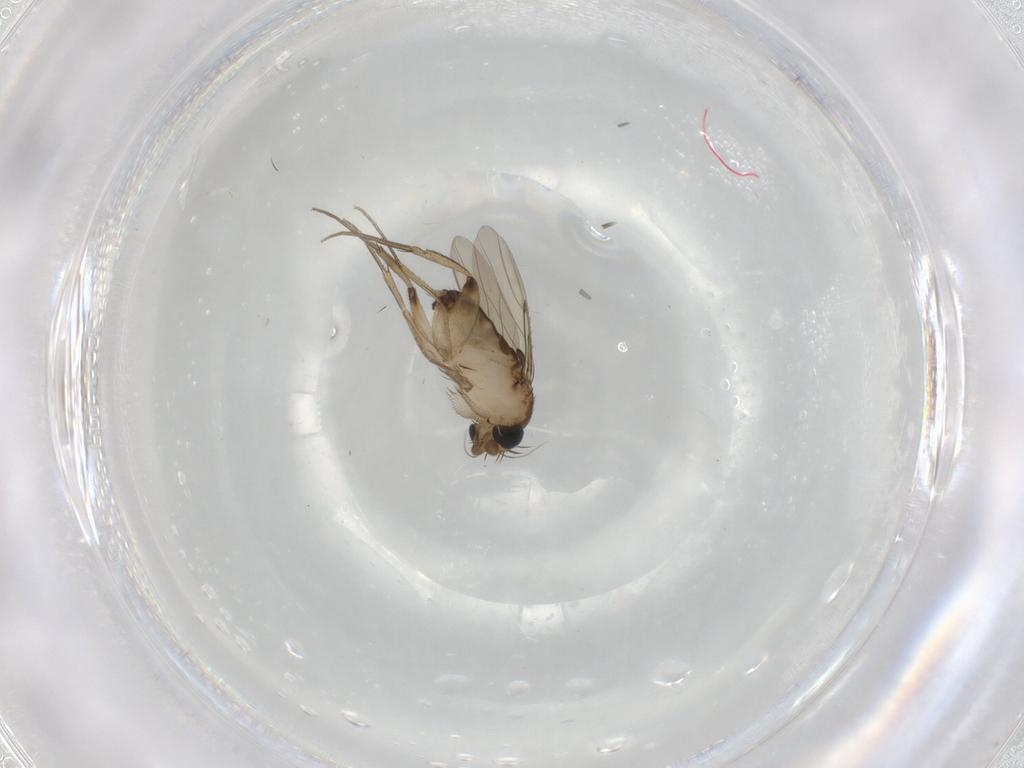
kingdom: Animalia
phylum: Arthropoda
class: Insecta
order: Diptera
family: Phoridae
